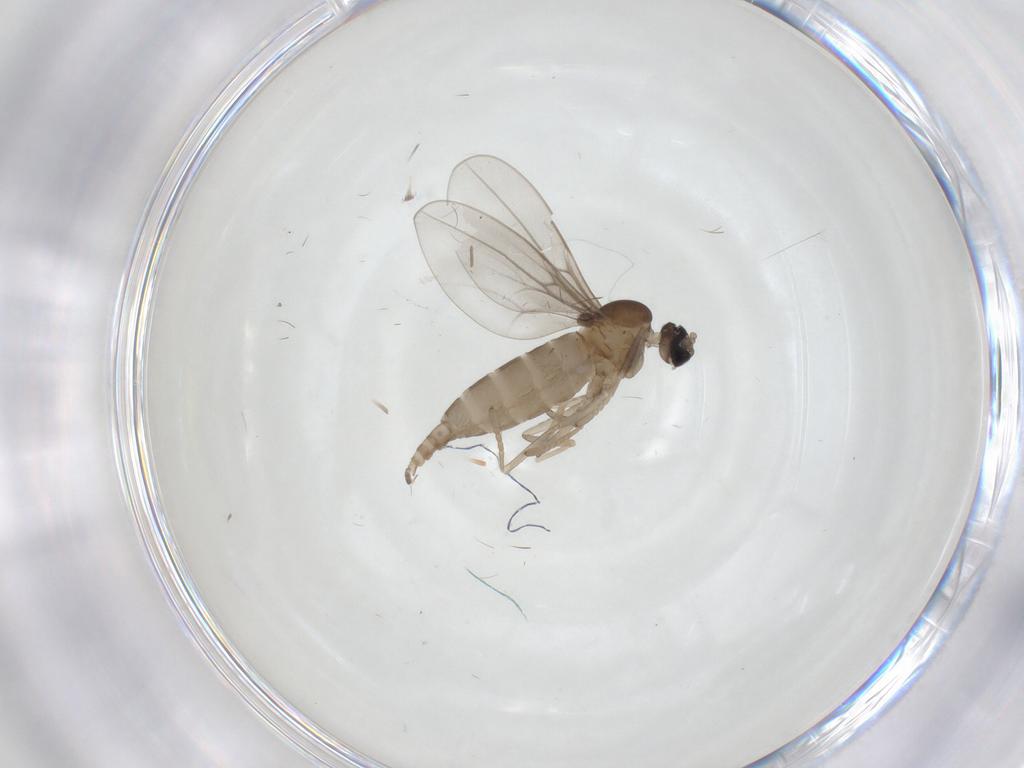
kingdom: Animalia
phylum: Arthropoda
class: Insecta
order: Diptera
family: Cecidomyiidae
